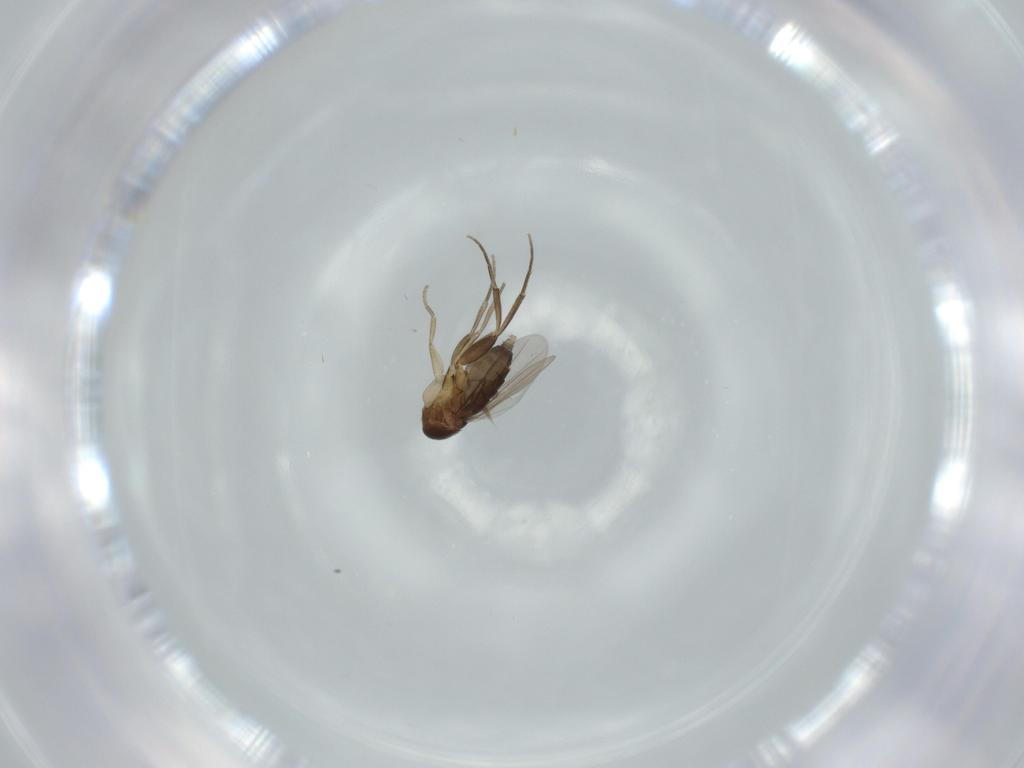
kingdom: Animalia
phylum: Arthropoda
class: Insecta
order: Diptera
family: Phoridae
